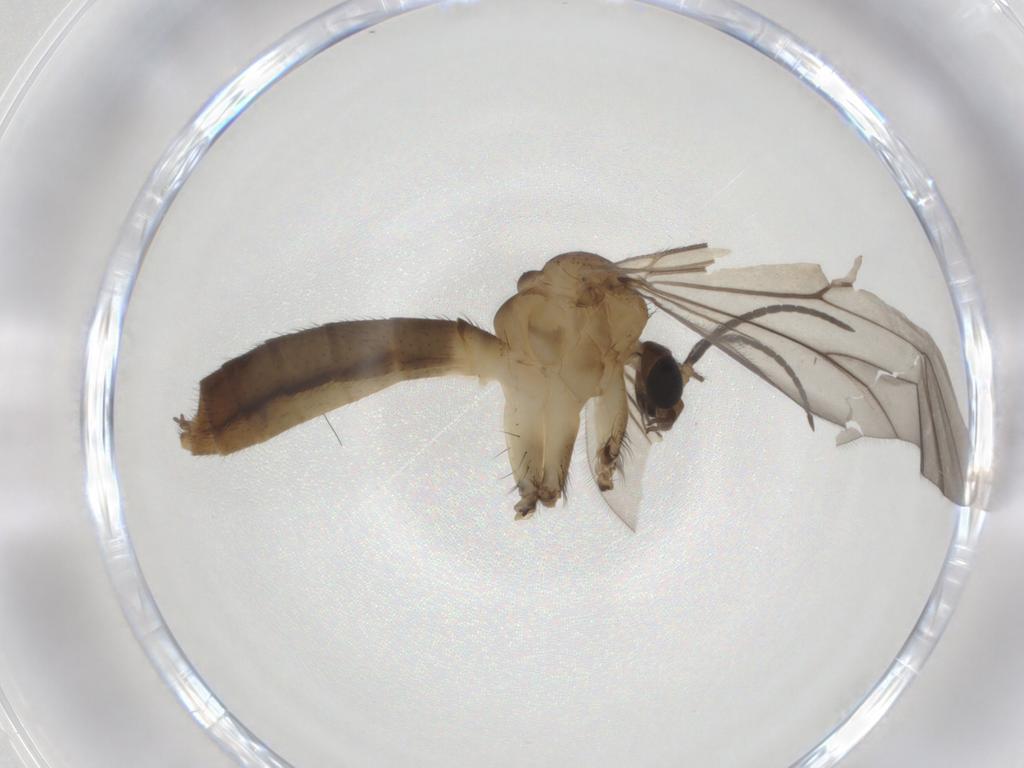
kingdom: Animalia
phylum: Arthropoda
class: Insecta
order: Diptera
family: Mycetophilidae
